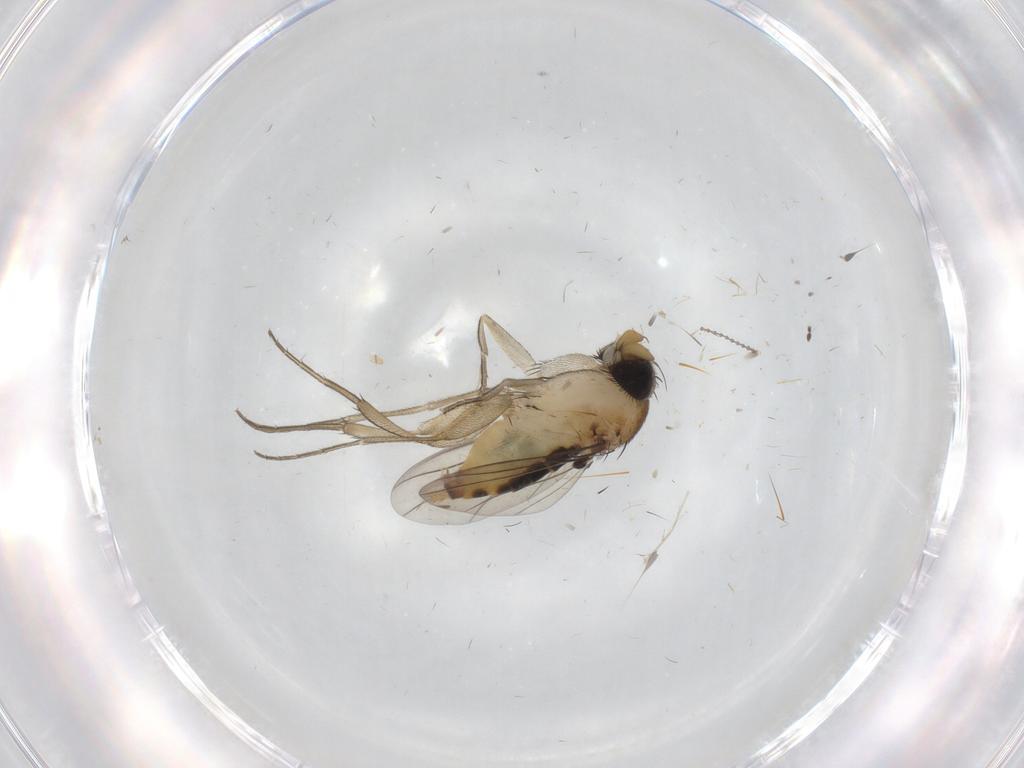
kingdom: Animalia
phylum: Arthropoda
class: Insecta
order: Diptera
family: Phoridae
